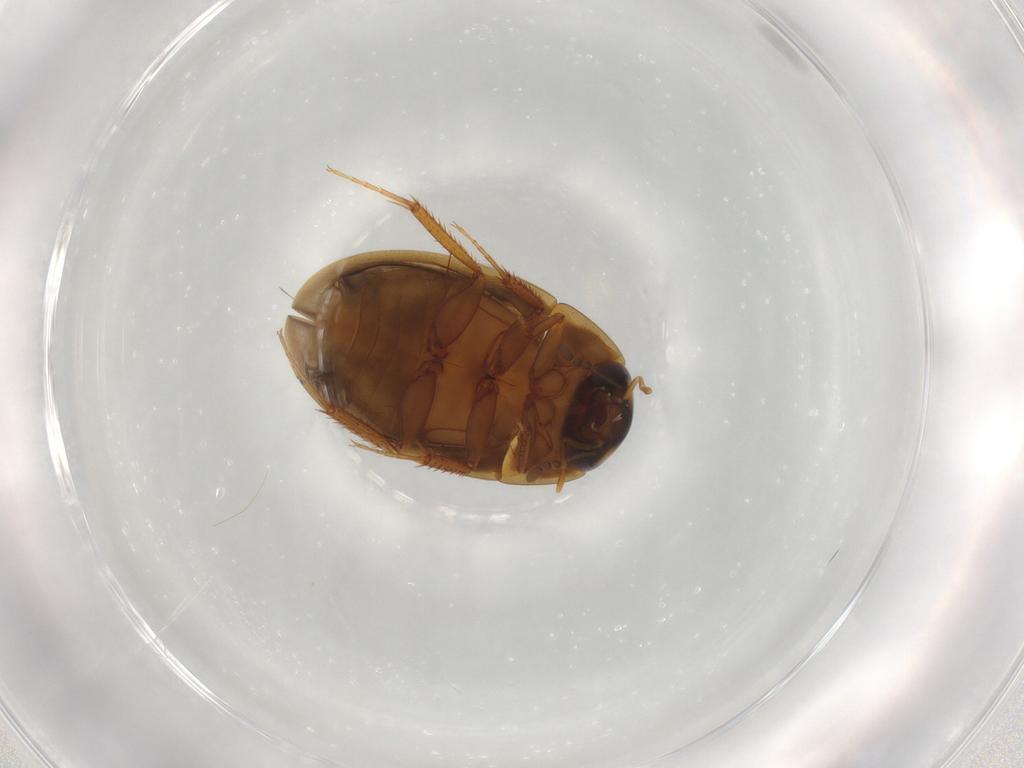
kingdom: Animalia
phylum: Arthropoda
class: Insecta
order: Coleoptera
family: Hydrophilidae
